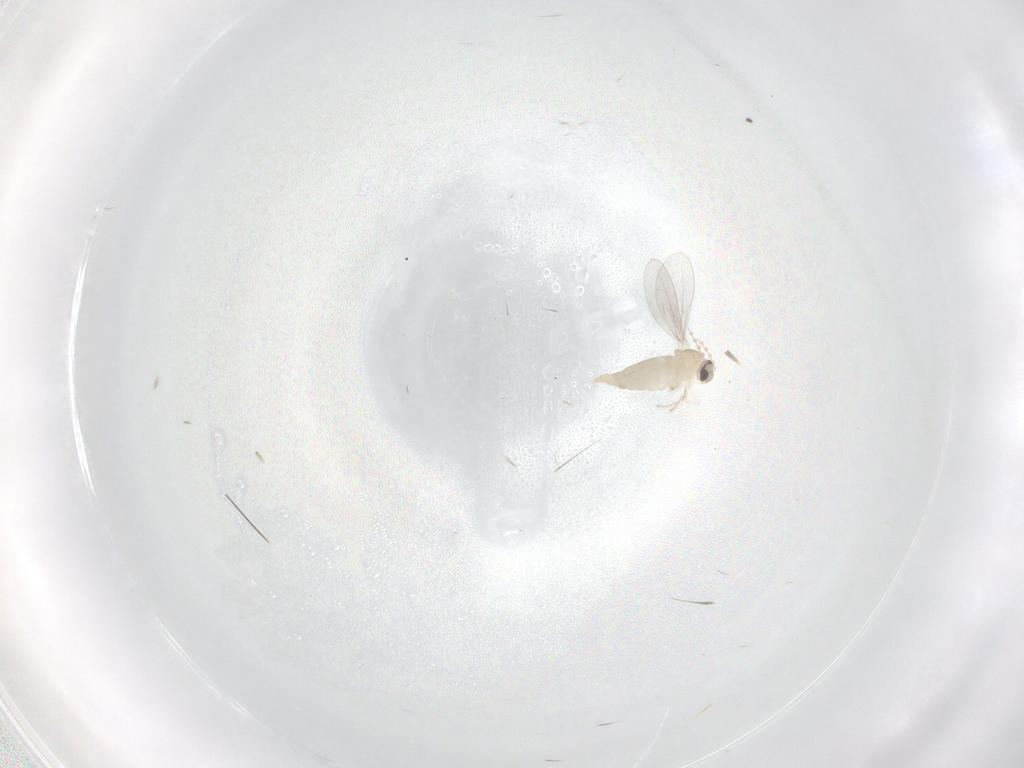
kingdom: Animalia
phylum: Arthropoda
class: Insecta
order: Diptera
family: Cecidomyiidae
